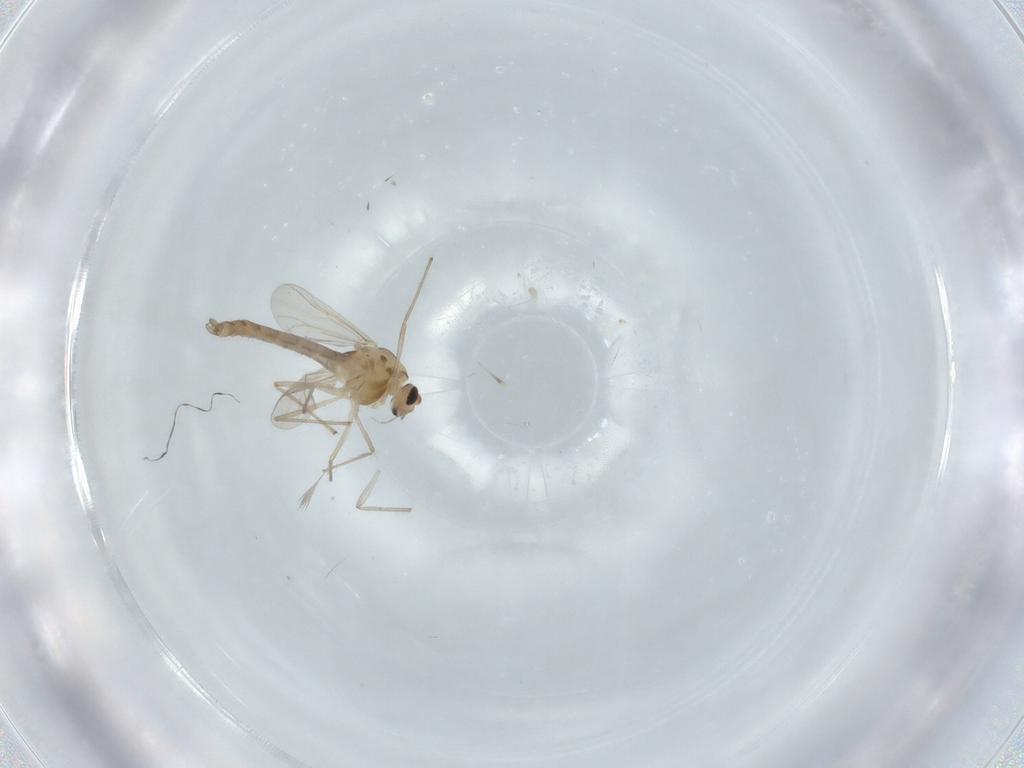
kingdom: Animalia
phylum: Arthropoda
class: Insecta
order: Diptera
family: Chironomidae
